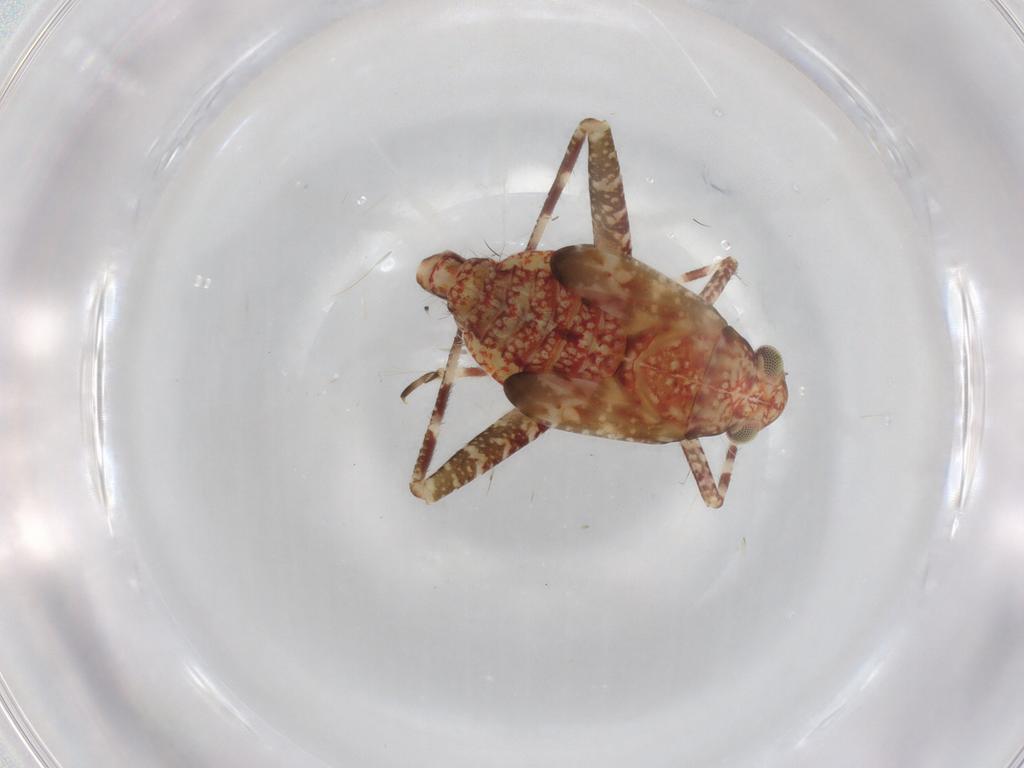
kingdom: Animalia
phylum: Arthropoda
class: Insecta
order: Hemiptera
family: Miridae
